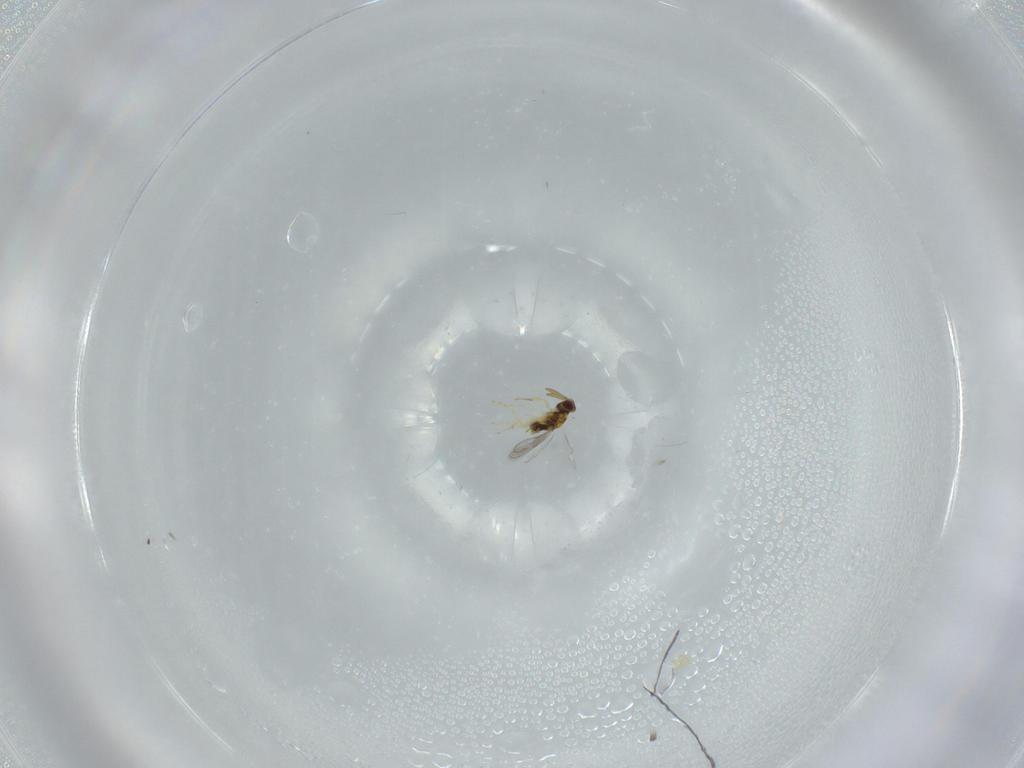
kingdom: Animalia
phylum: Arthropoda
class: Insecta
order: Hymenoptera
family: Aphelinidae
